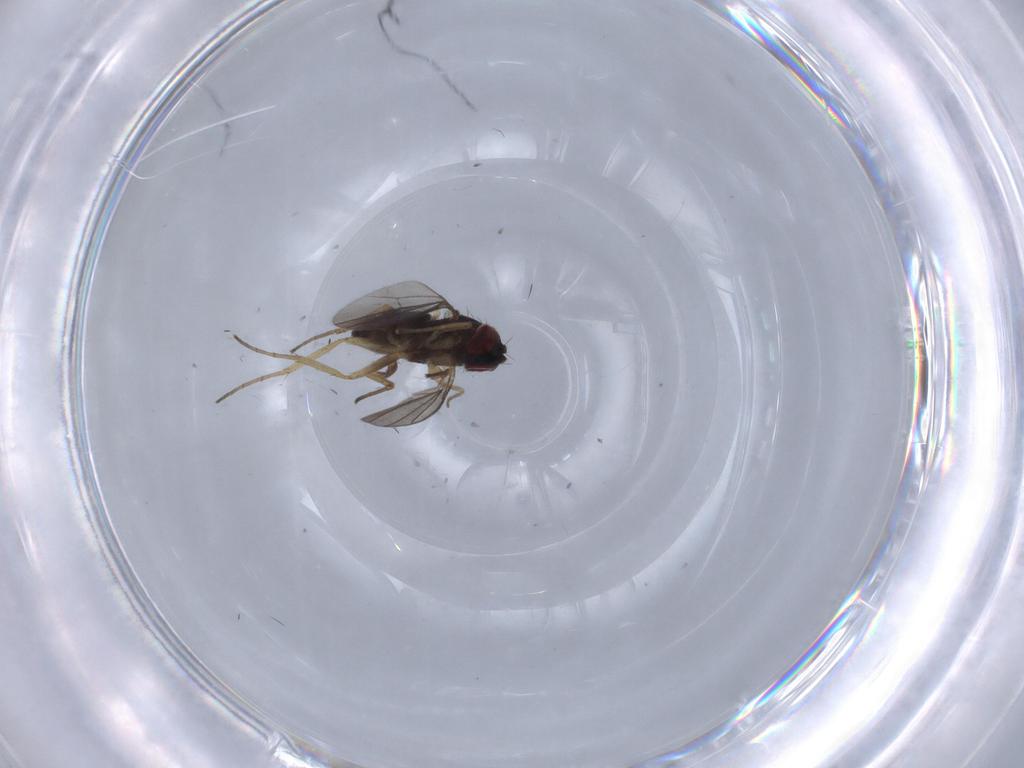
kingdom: Animalia
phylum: Arthropoda
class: Insecta
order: Diptera
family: Dolichopodidae
